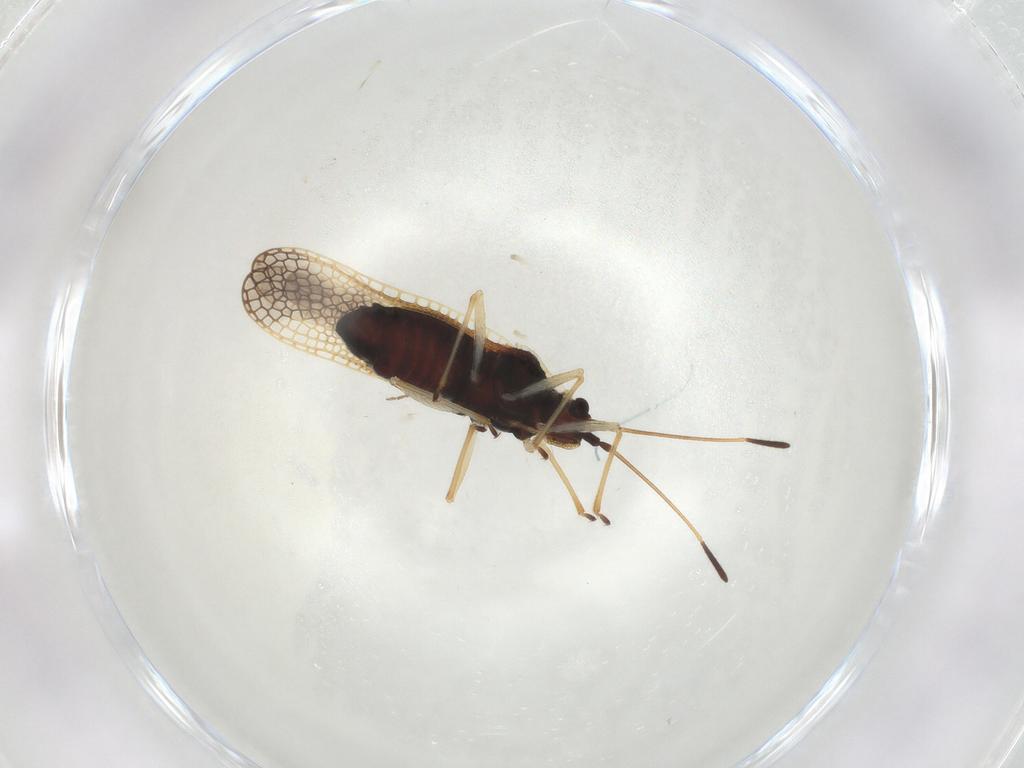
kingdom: Animalia
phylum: Arthropoda
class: Insecta
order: Hemiptera
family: Tingidae
